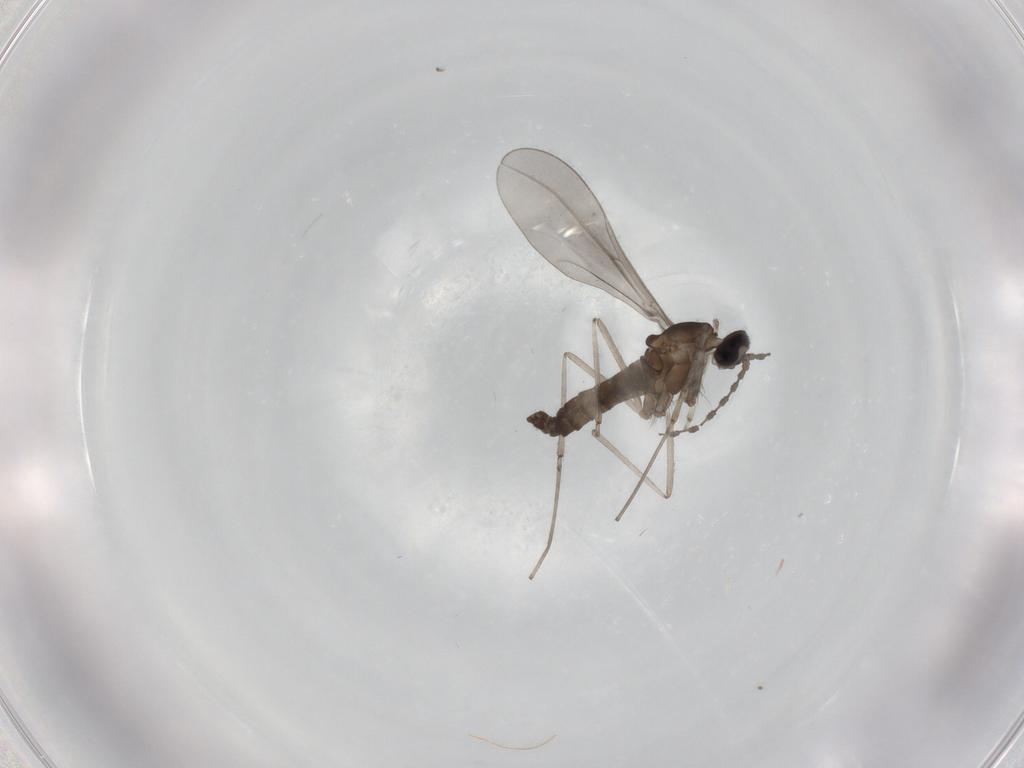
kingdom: Animalia
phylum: Arthropoda
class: Insecta
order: Diptera
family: Cecidomyiidae
